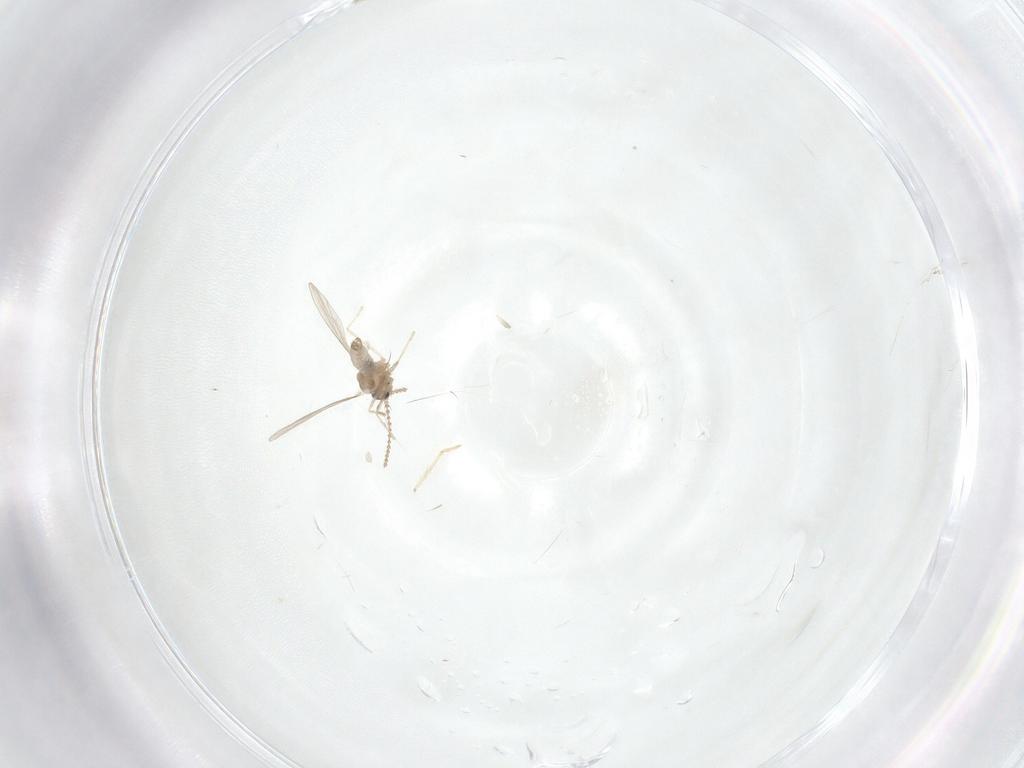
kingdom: Animalia
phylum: Arthropoda
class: Insecta
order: Diptera
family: Cecidomyiidae
